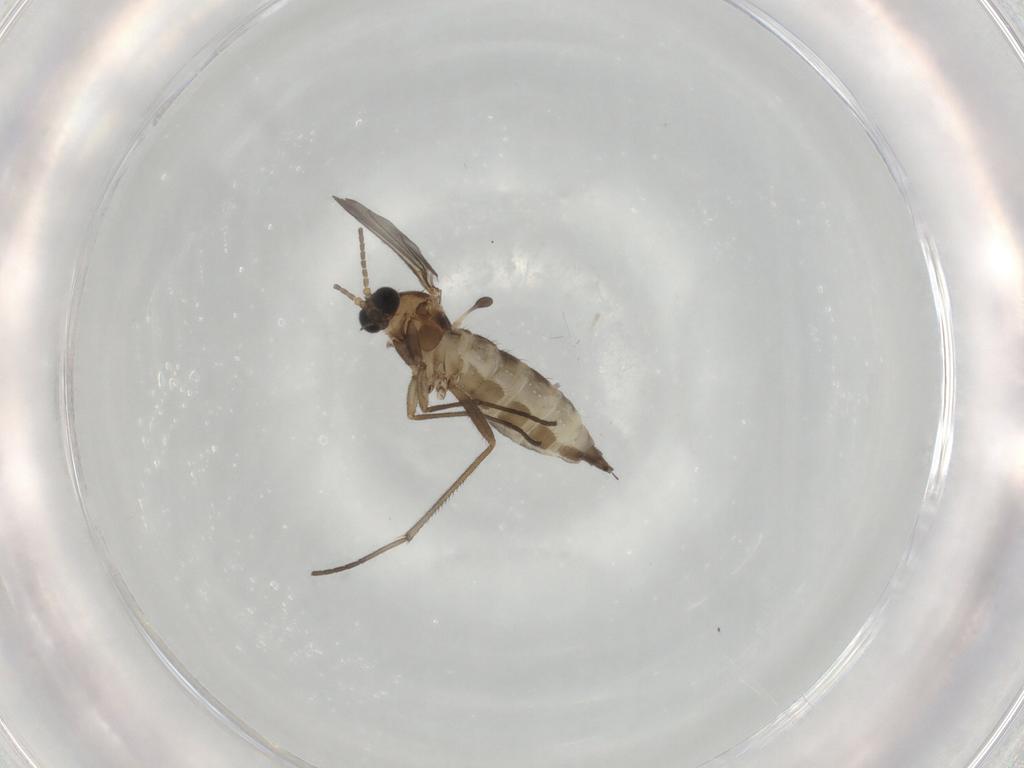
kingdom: Animalia
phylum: Arthropoda
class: Insecta
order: Diptera
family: Sciaridae
